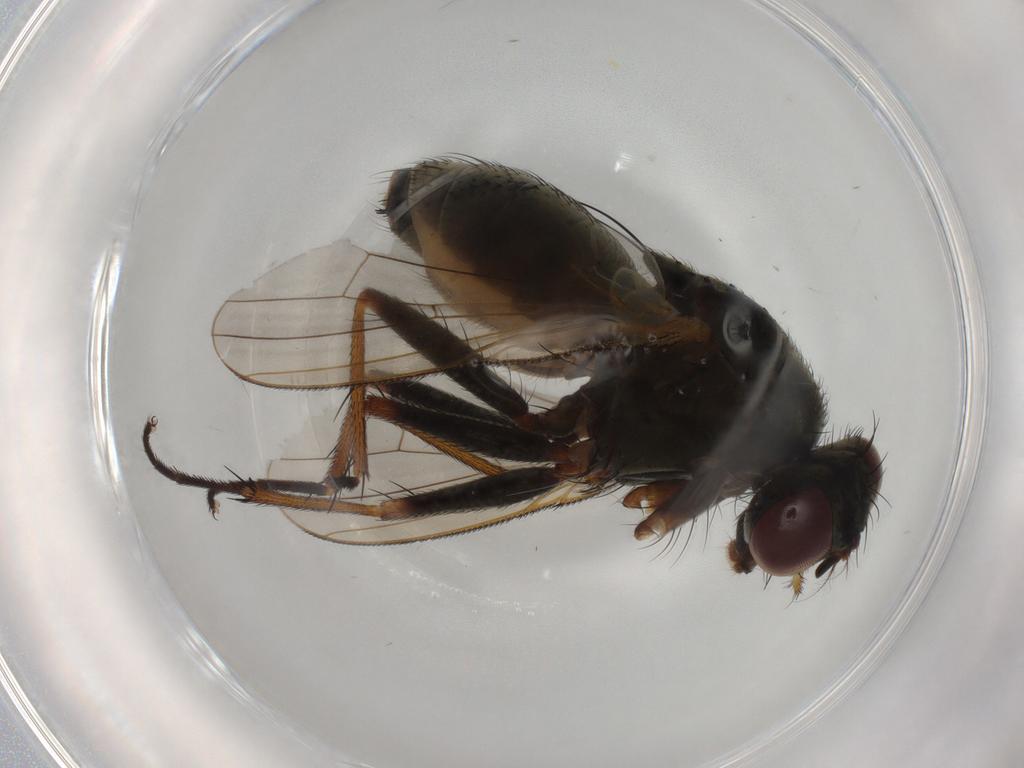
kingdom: Animalia
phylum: Arthropoda
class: Insecta
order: Diptera
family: Muscidae
